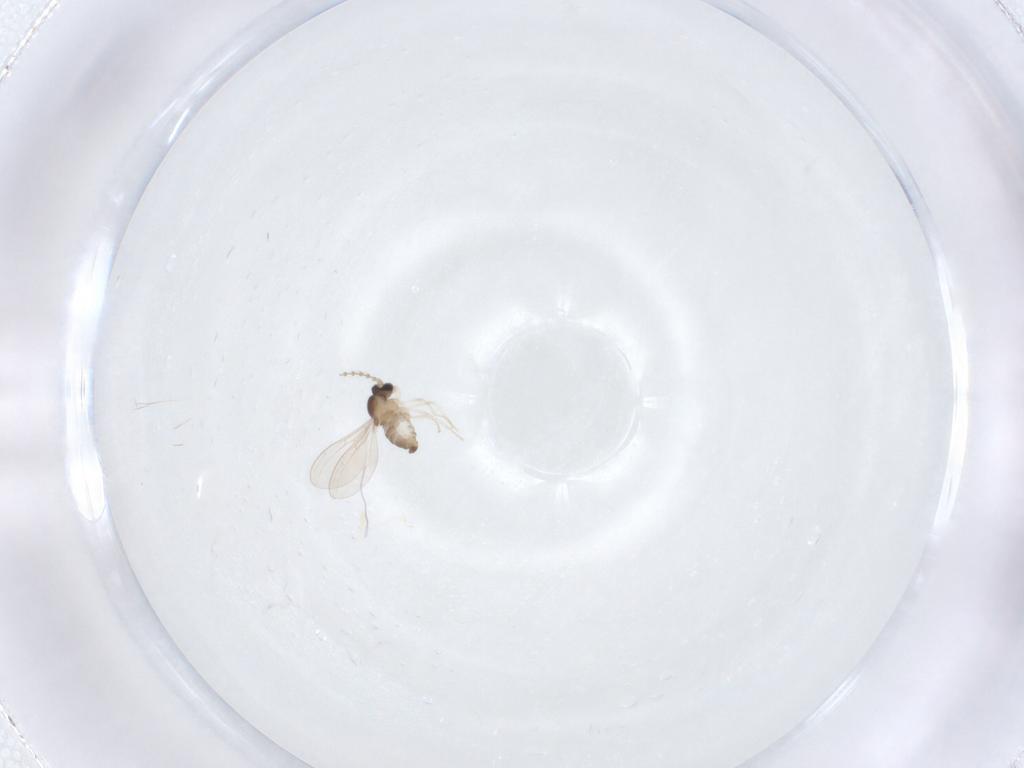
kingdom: Animalia
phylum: Arthropoda
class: Insecta
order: Diptera
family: Cecidomyiidae
